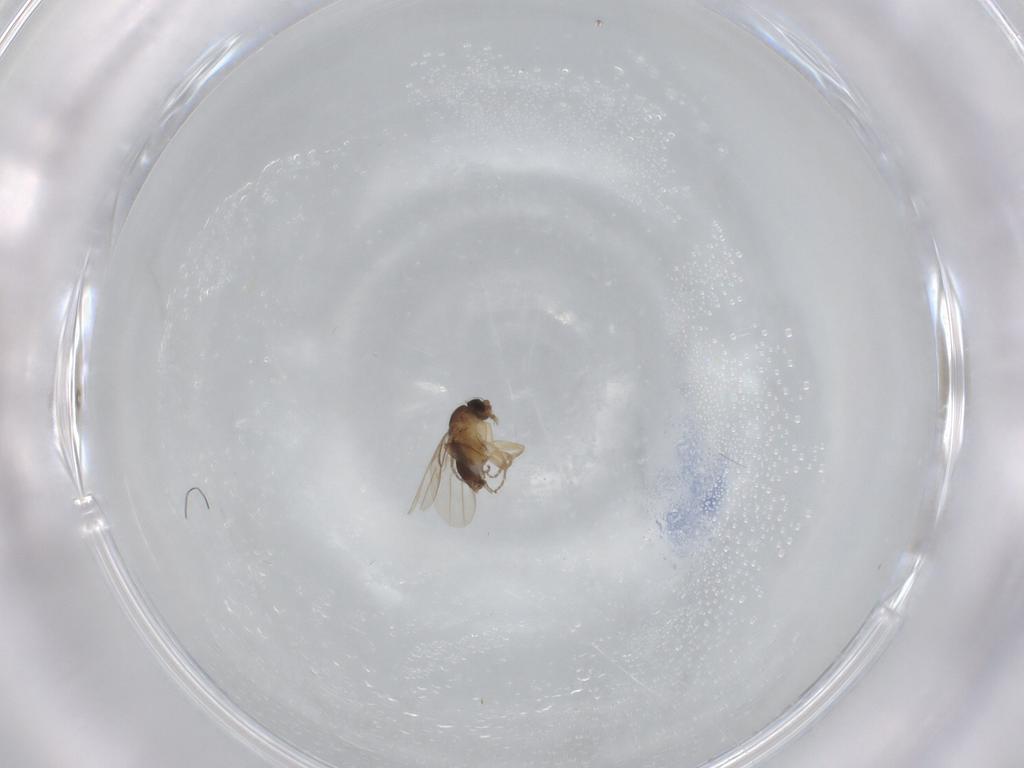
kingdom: Animalia
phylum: Arthropoda
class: Insecta
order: Diptera
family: Phoridae
